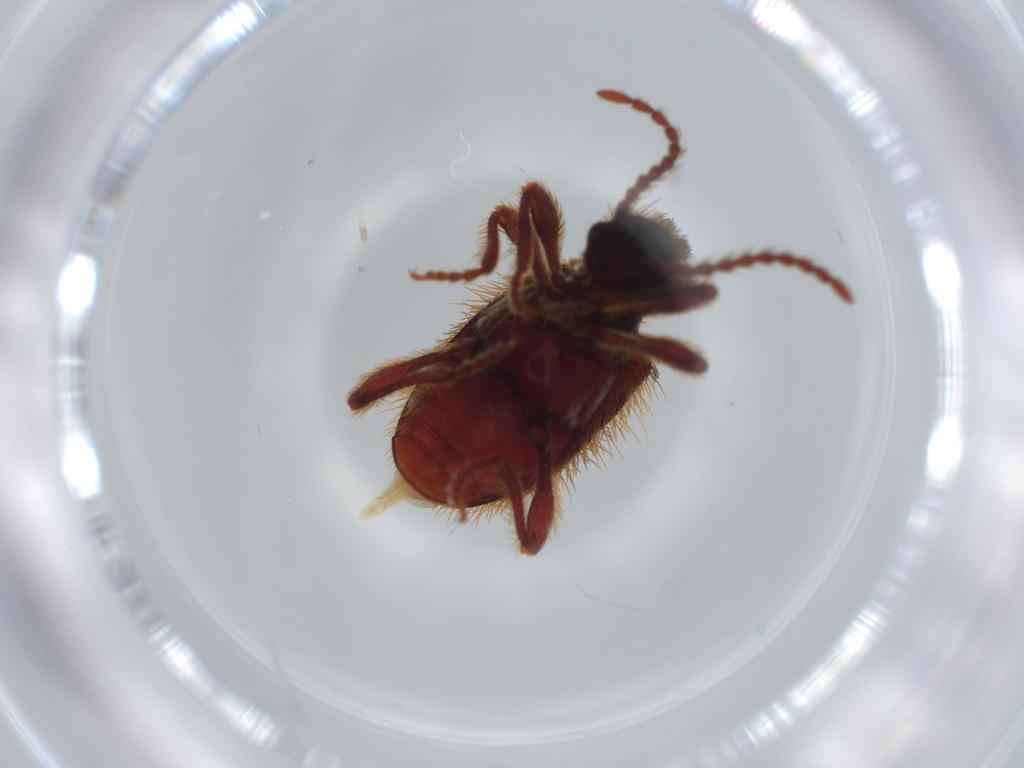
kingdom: Animalia
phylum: Arthropoda
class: Insecta
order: Coleoptera
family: Ptinidae
